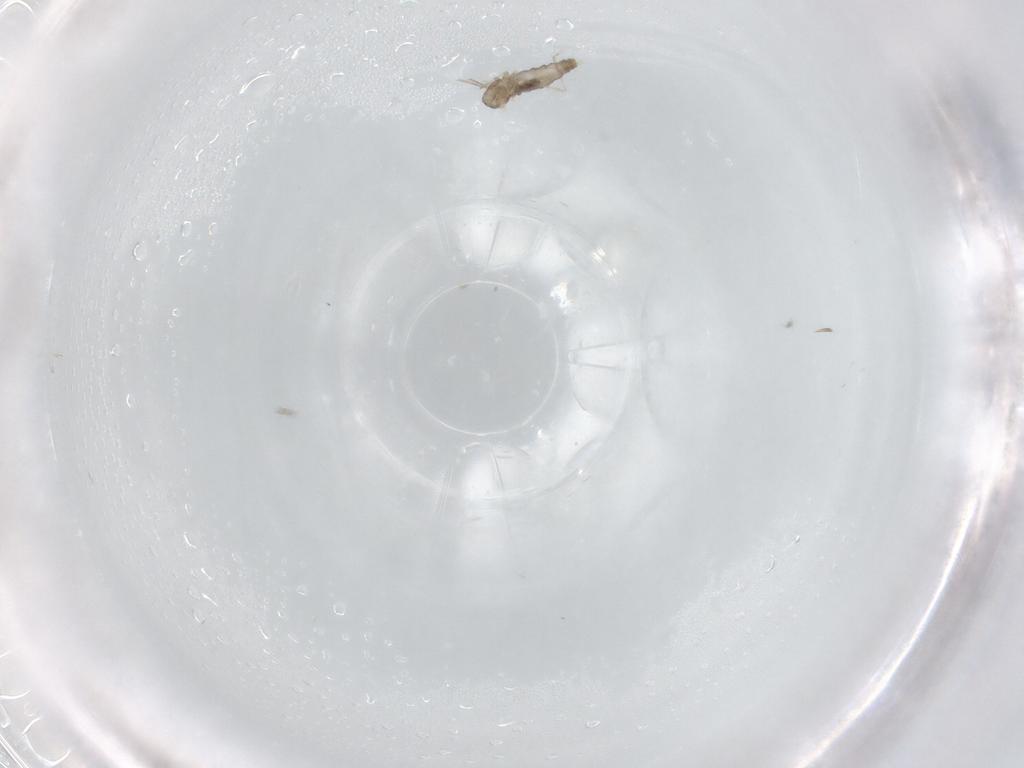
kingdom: Animalia
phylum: Arthropoda
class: Insecta
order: Diptera
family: Cecidomyiidae
